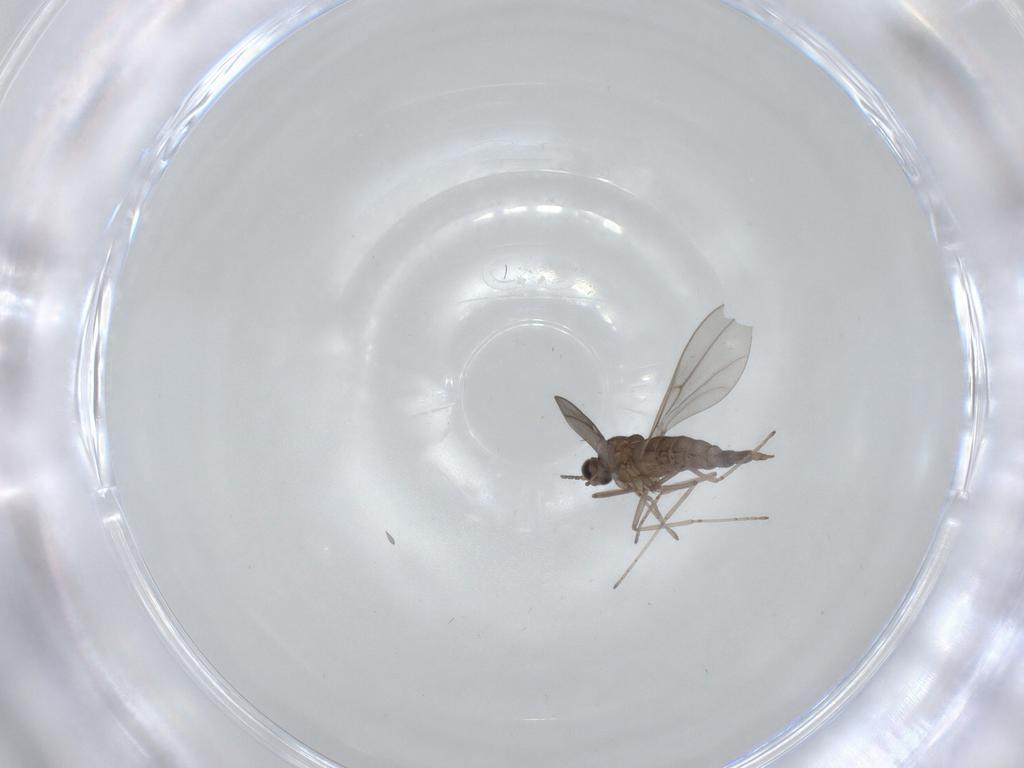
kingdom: Animalia
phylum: Arthropoda
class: Insecta
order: Diptera
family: Cecidomyiidae
